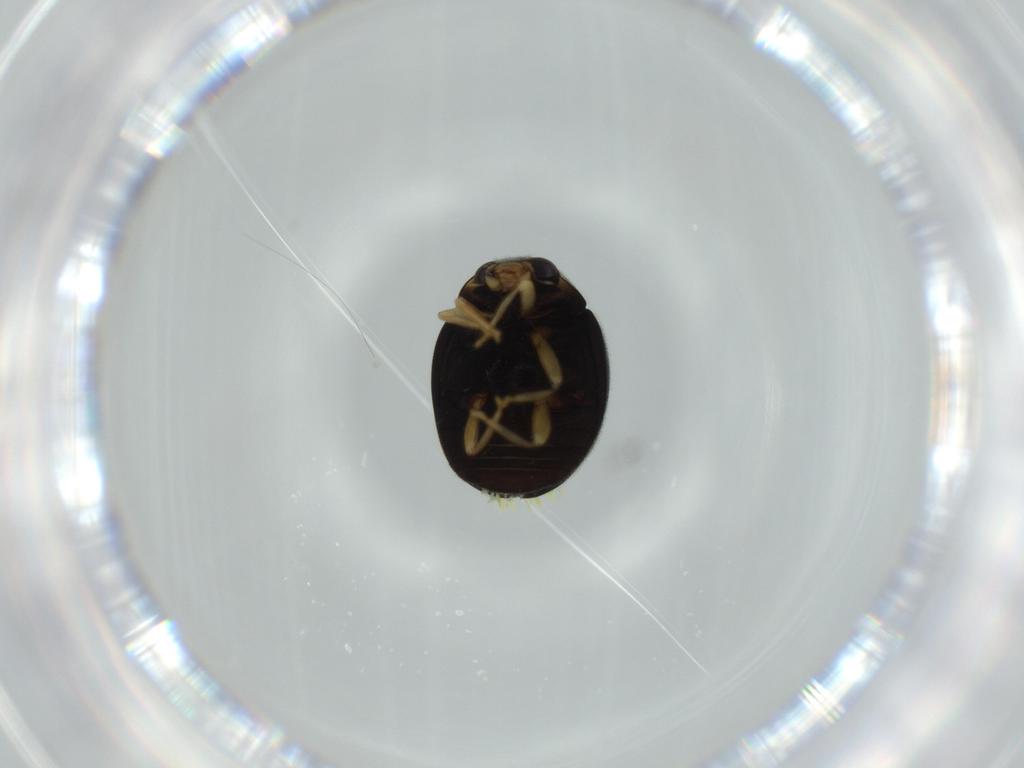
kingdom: Animalia
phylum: Arthropoda
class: Insecta
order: Coleoptera
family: Coccinellidae
